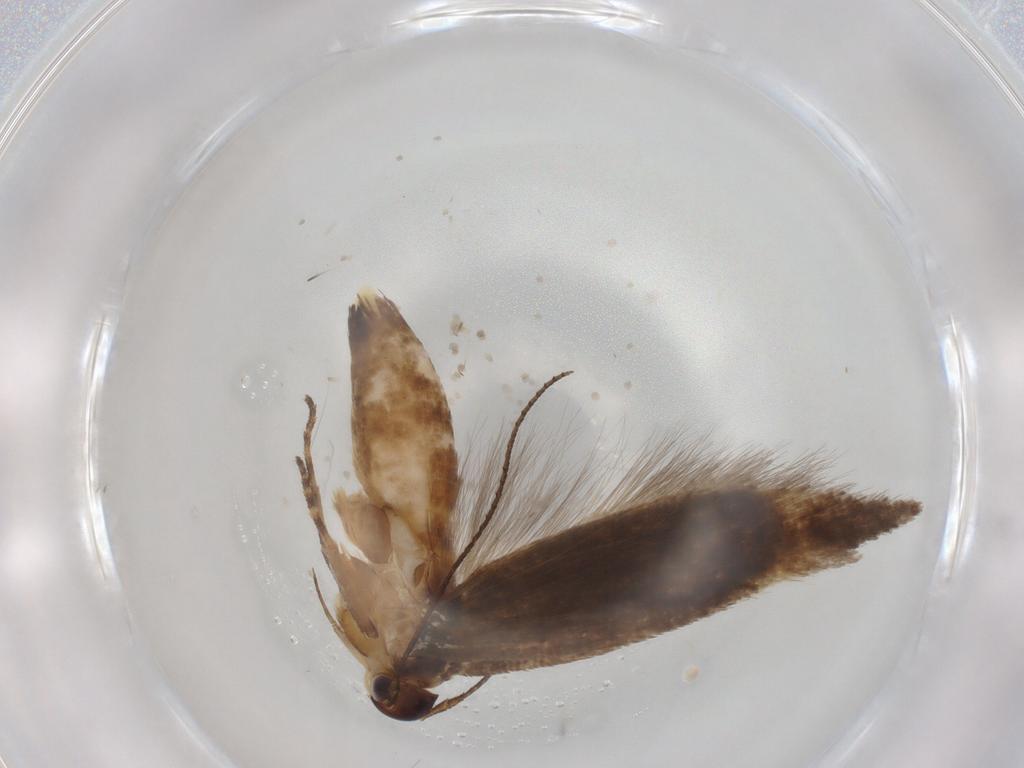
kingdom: Animalia
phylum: Arthropoda
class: Insecta
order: Lepidoptera
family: Gelechiidae
